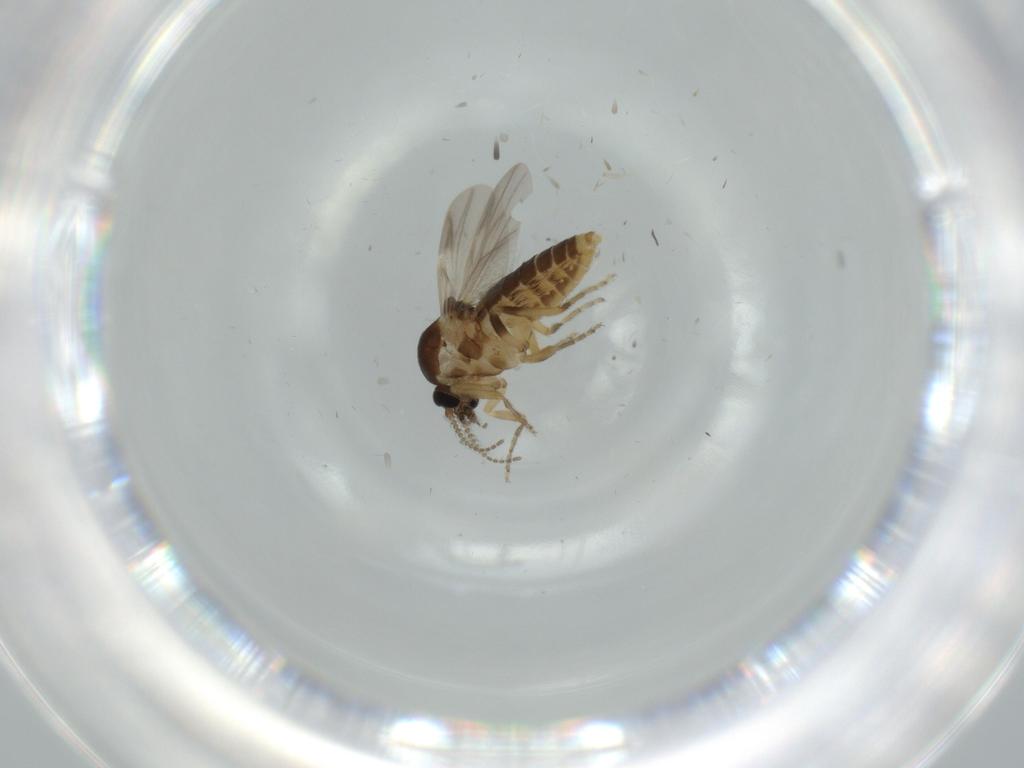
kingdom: Animalia
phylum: Arthropoda
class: Insecta
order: Diptera
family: Ceratopogonidae
